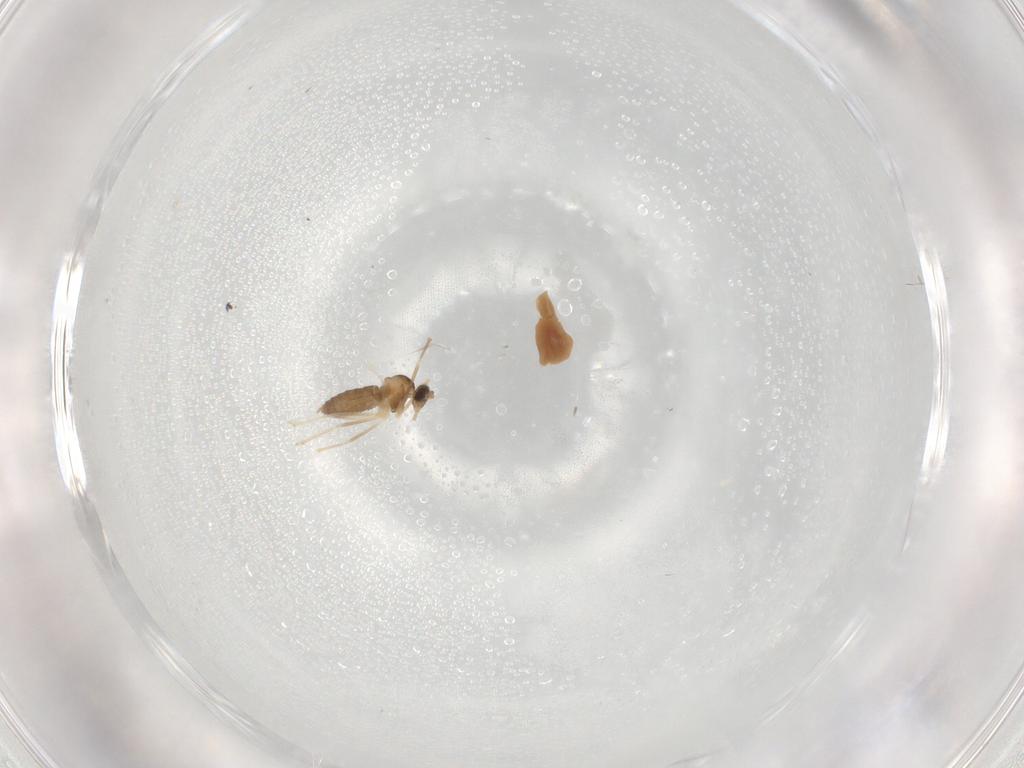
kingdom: Animalia
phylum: Arthropoda
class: Insecta
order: Diptera
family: Cecidomyiidae
